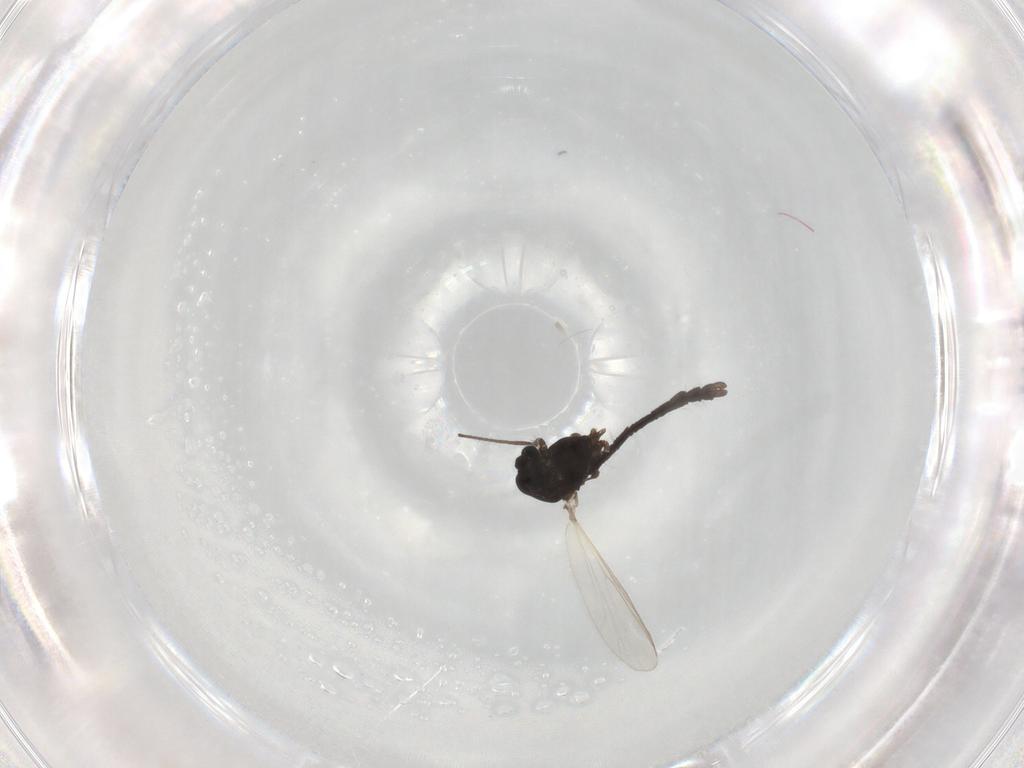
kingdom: Animalia
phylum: Arthropoda
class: Insecta
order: Diptera
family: Chironomidae
